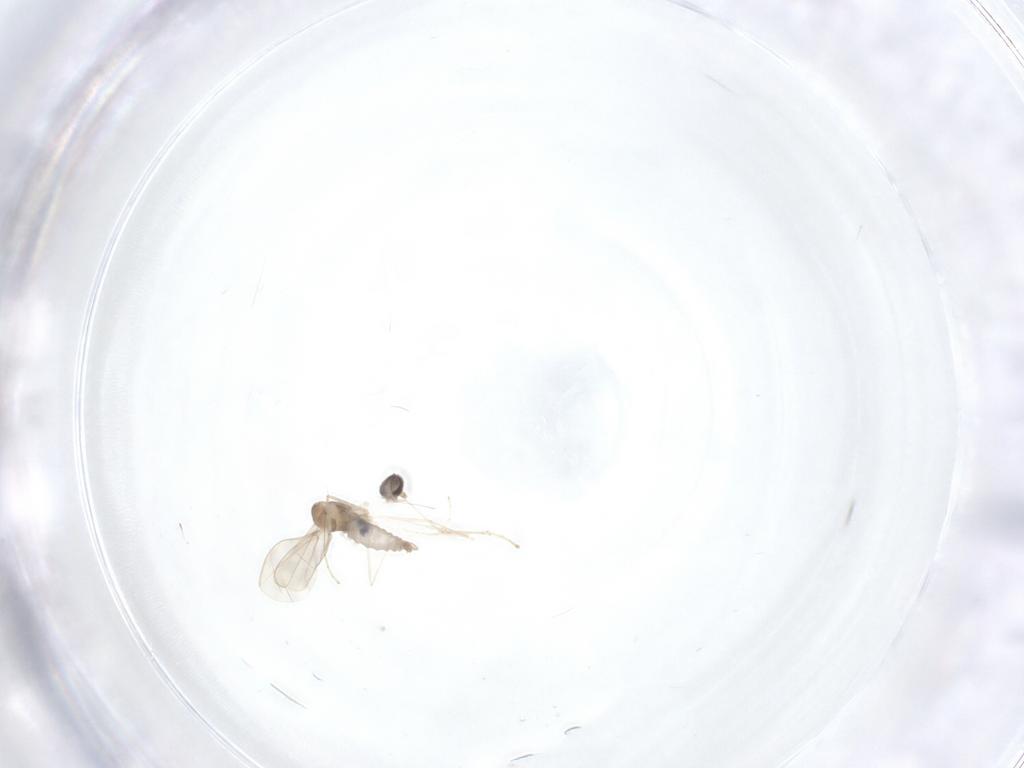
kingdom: Animalia
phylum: Arthropoda
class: Insecta
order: Diptera
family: Cecidomyiidae
